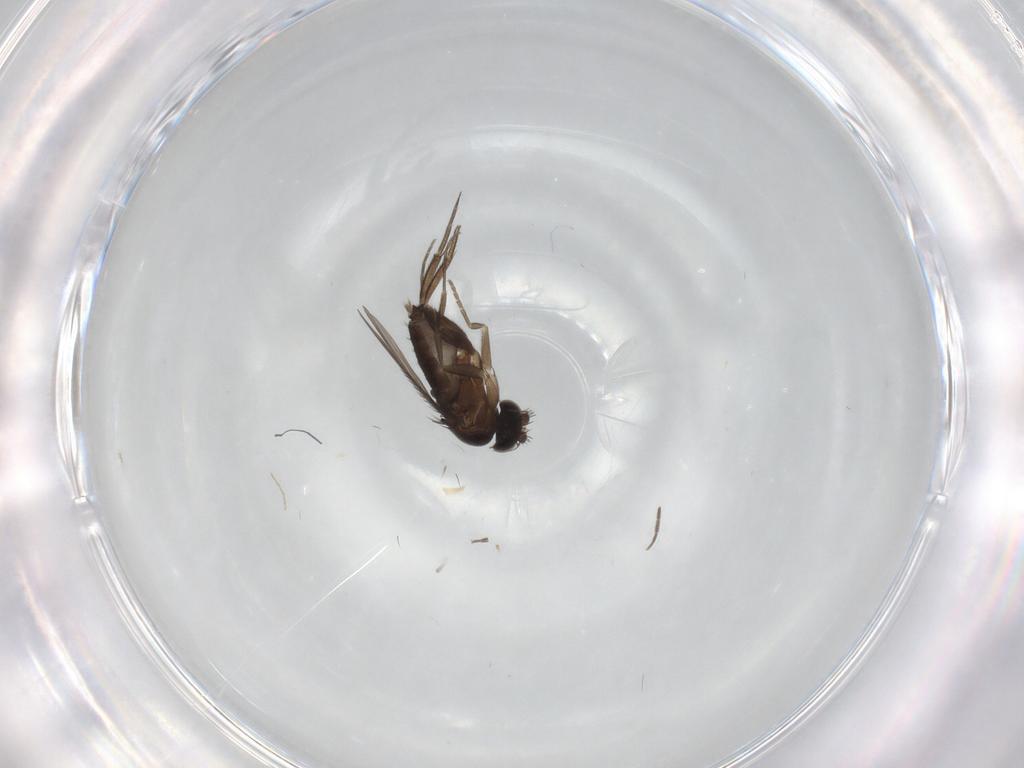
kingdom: Animalia
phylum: Arthropoda
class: Insecta
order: Diptera
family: Phoridae
